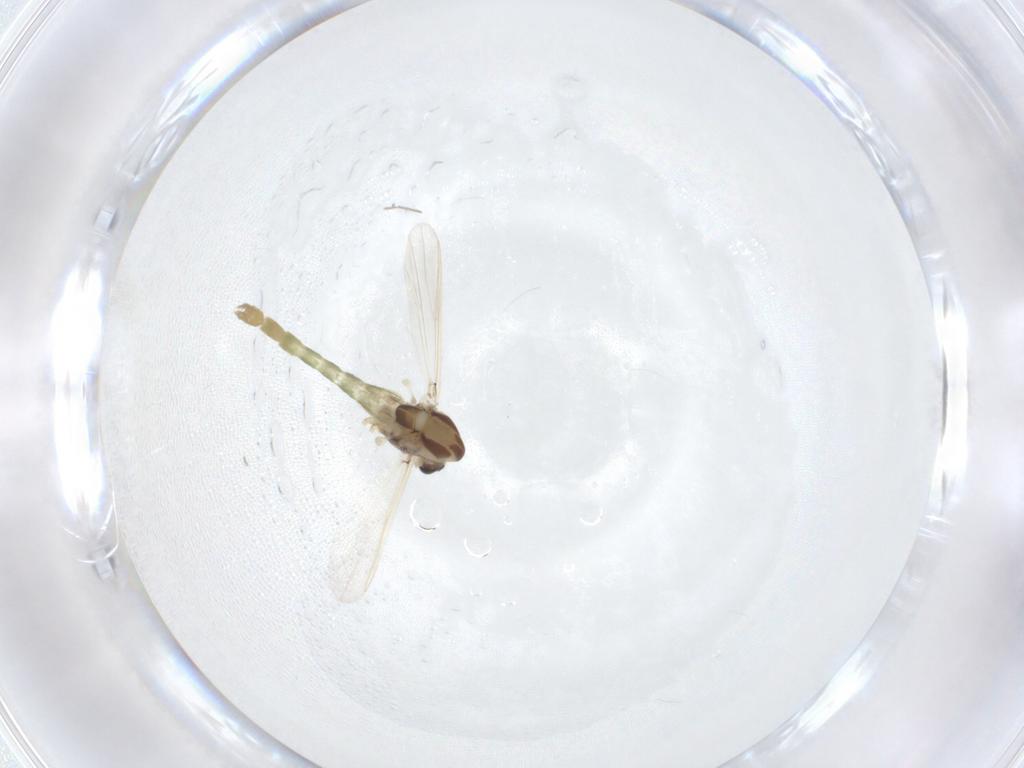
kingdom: Animalia
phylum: Arthropoda
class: Insecta
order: Diptera
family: Chironomidae
